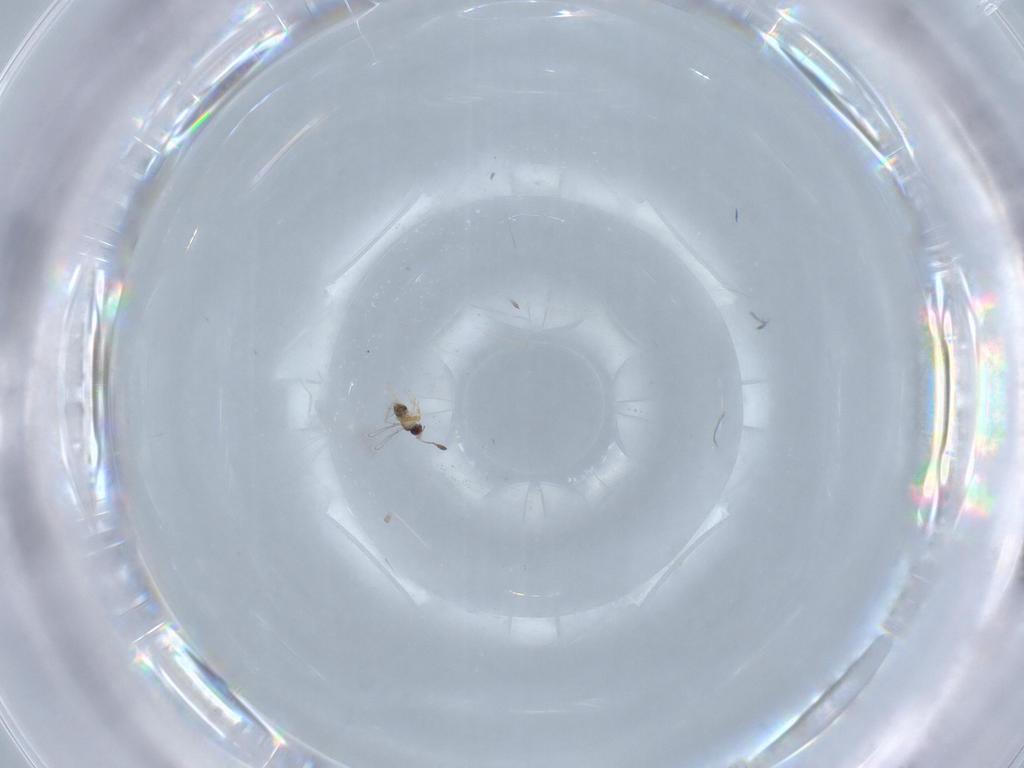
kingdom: Animalia
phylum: Arthropoda
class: Insecta
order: Hymenoptera
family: Mymaridae
